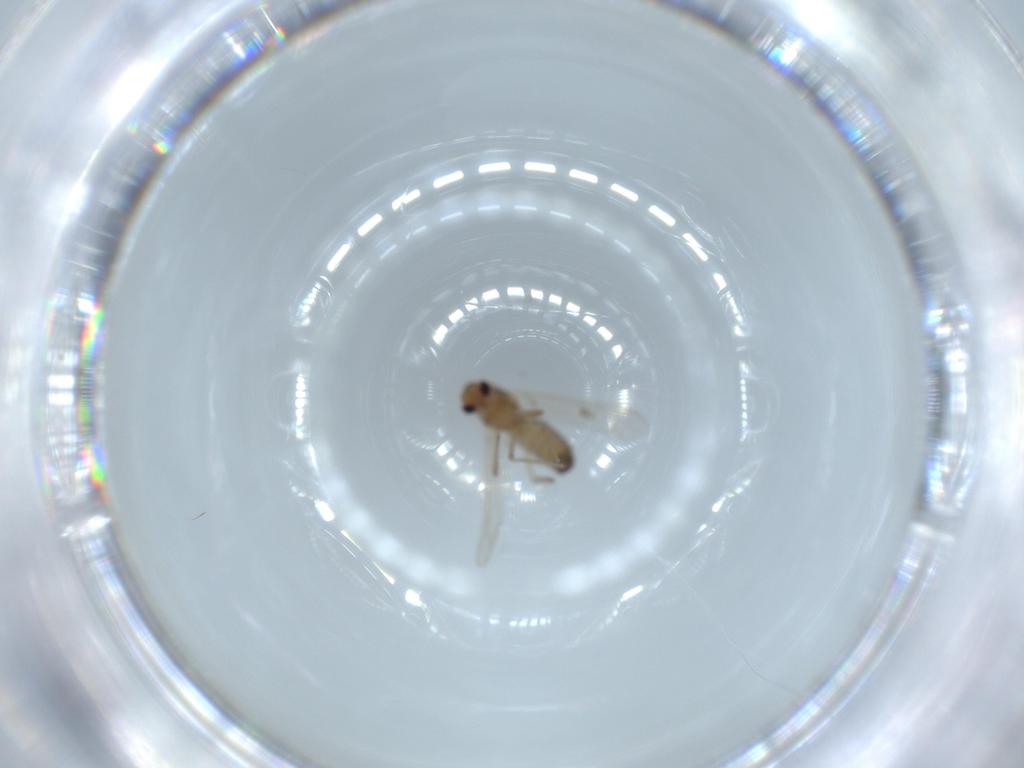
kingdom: Animalia
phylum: Arthropoda
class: Insecta
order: Diptera
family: Chironomidae
